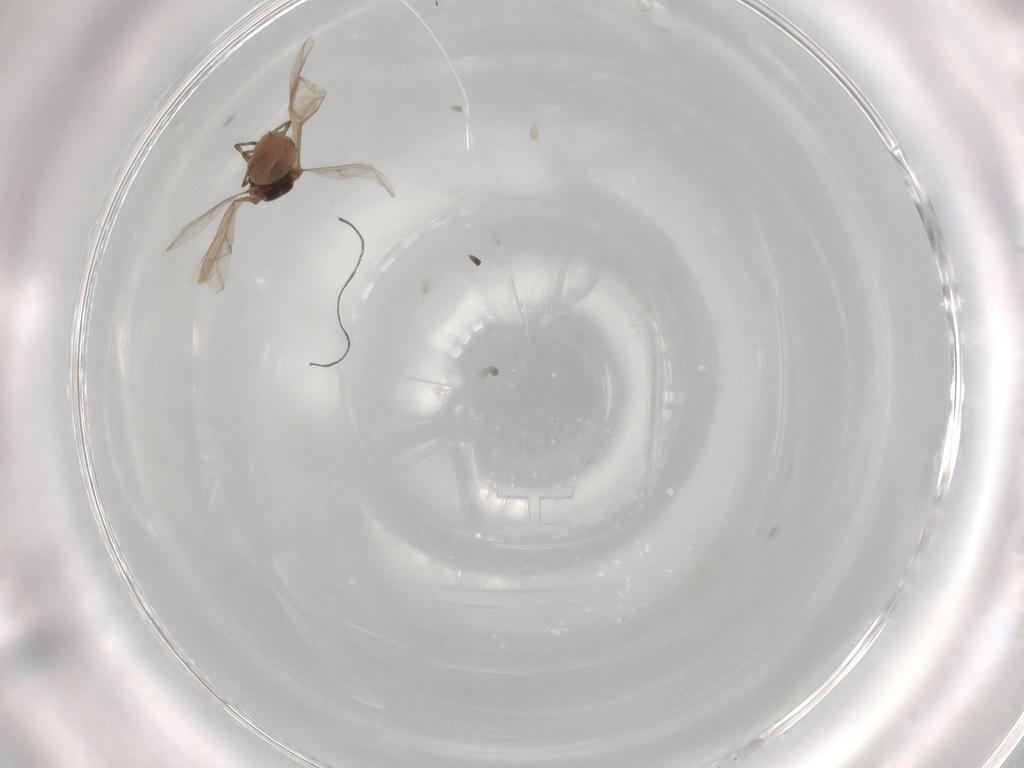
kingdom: Animalia
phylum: Arthropoda
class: Insecta
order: Hemiptera
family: Adelgidae
